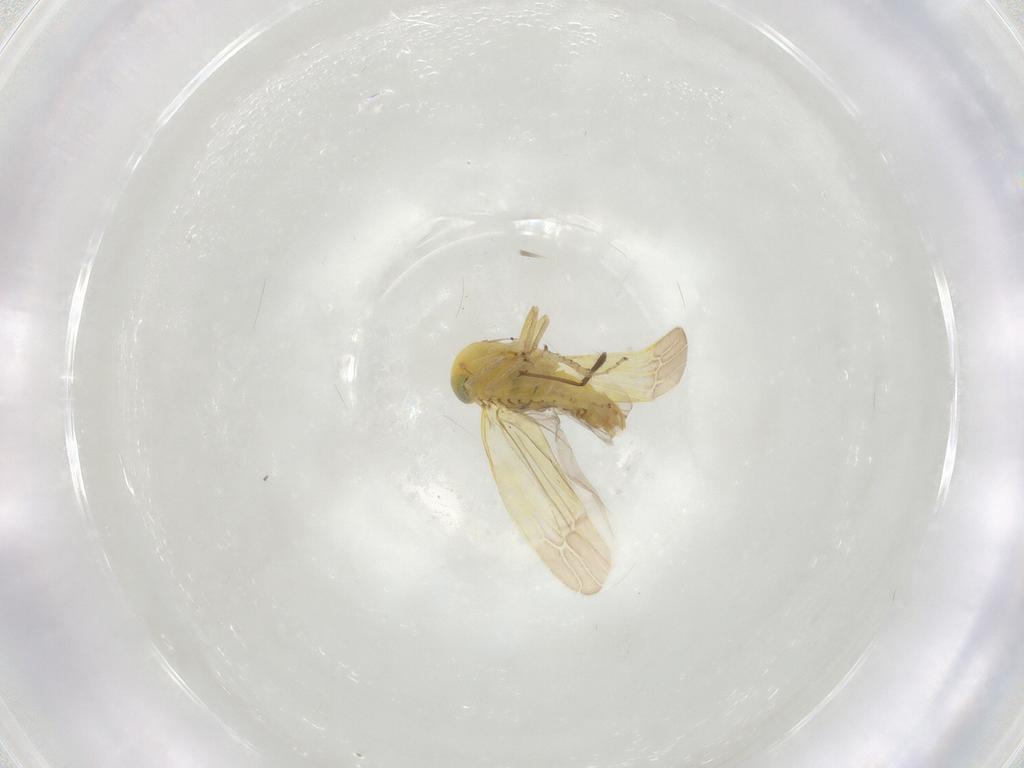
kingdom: Animalia
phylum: Arthropoda
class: Insecta
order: Hemiptera
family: Cicadellidae
